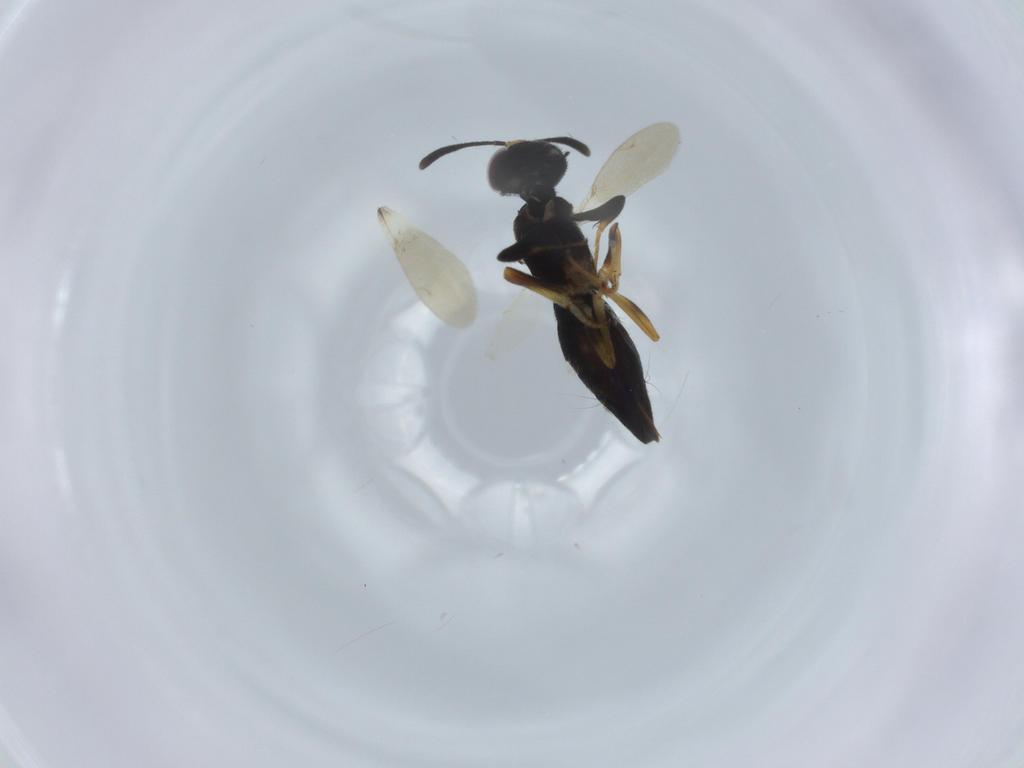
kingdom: Animalia
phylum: Arthropoda
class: Insecta
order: Hymenoptera
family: Formicidae
